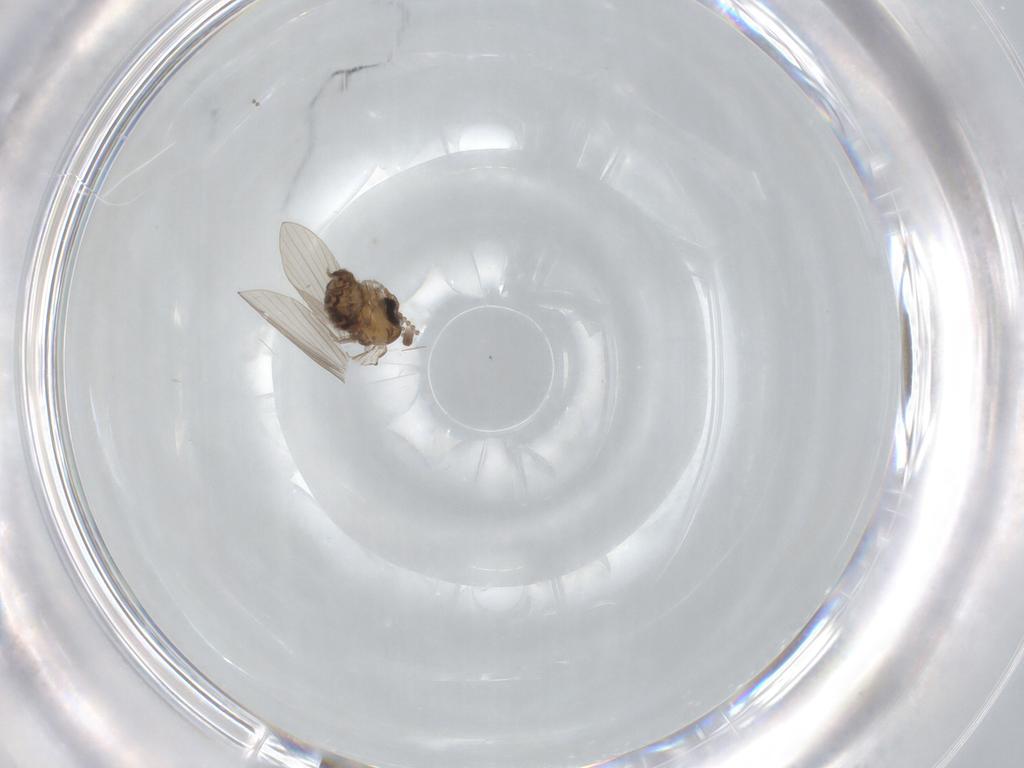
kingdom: Animalia
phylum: Arthropoda
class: Insecta
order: Diptera
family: Psychodidae
